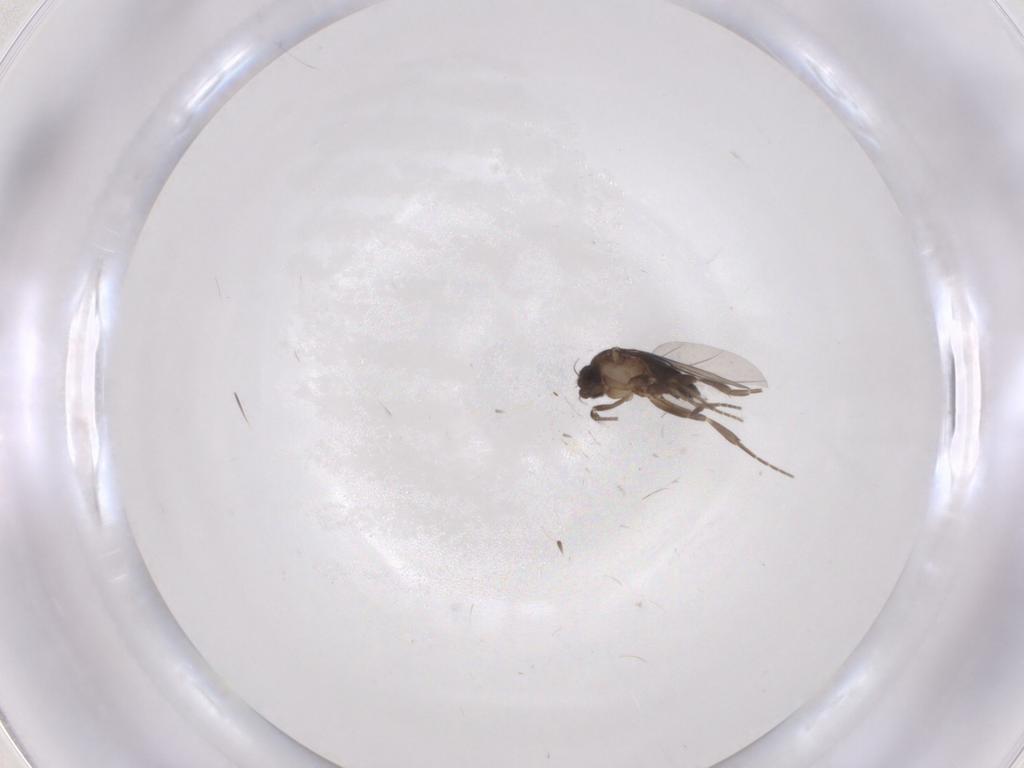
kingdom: Animalia
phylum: Arthropoda
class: Insecta
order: Diptera
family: Phoridae
